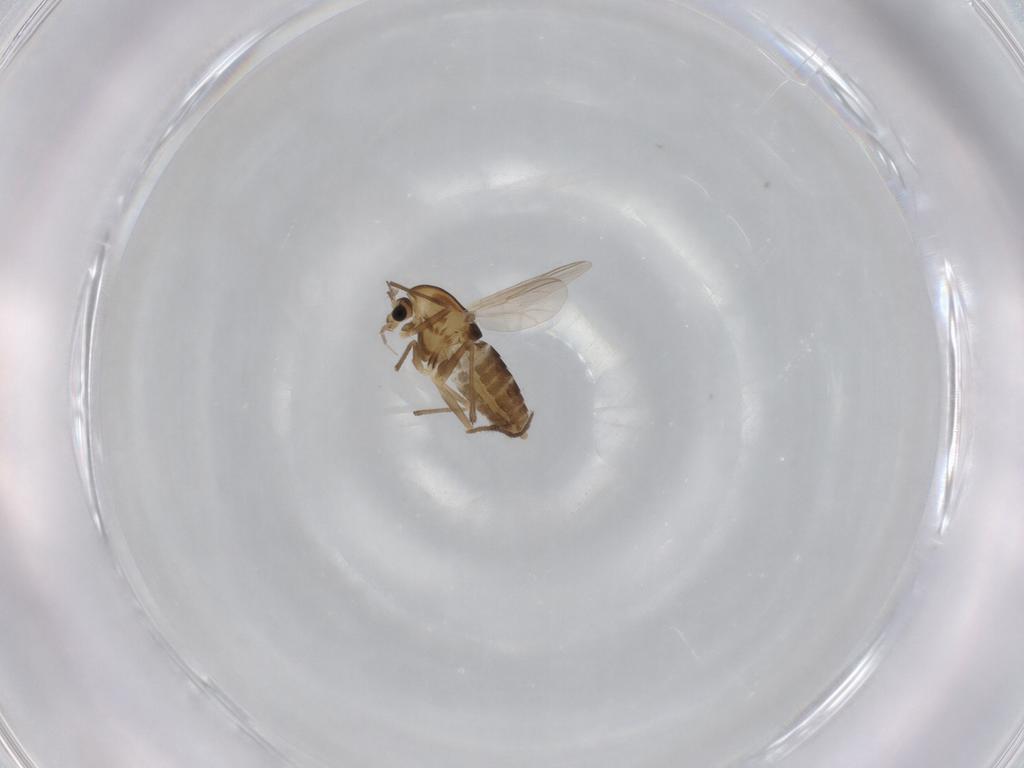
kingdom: Animalia
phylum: Arthropoda
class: Insecta
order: Diptera
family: Chironomidae
